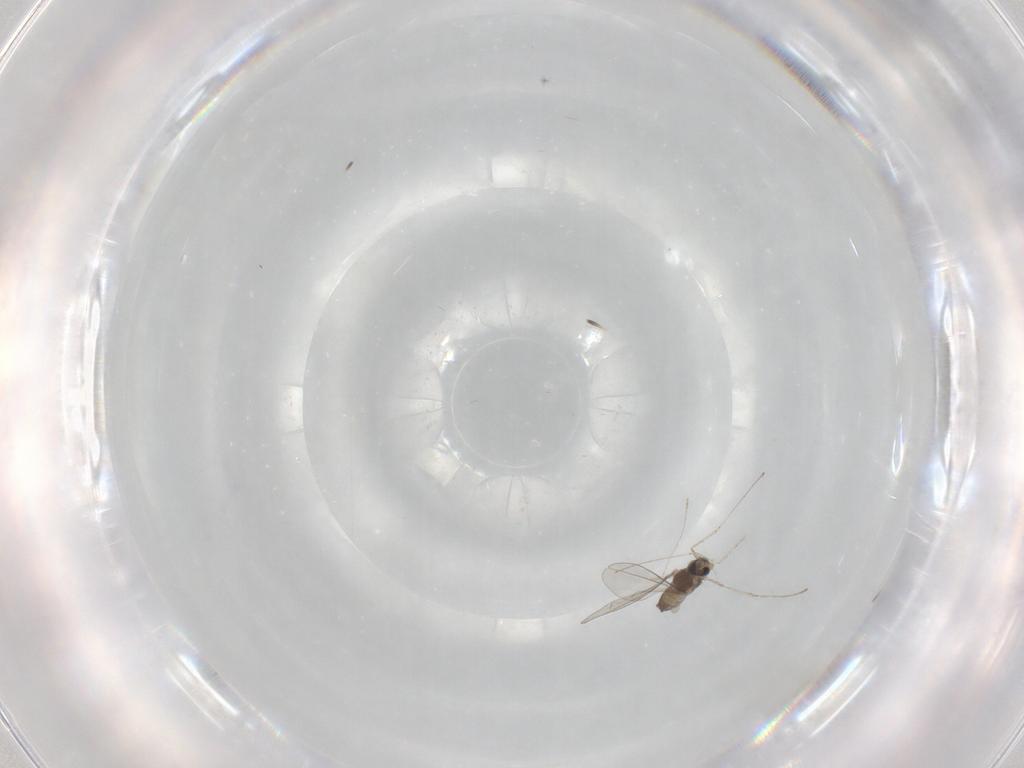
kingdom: Animalia
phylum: Arthropoda
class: Insecta
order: Diptera
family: Cecidomyiidae
